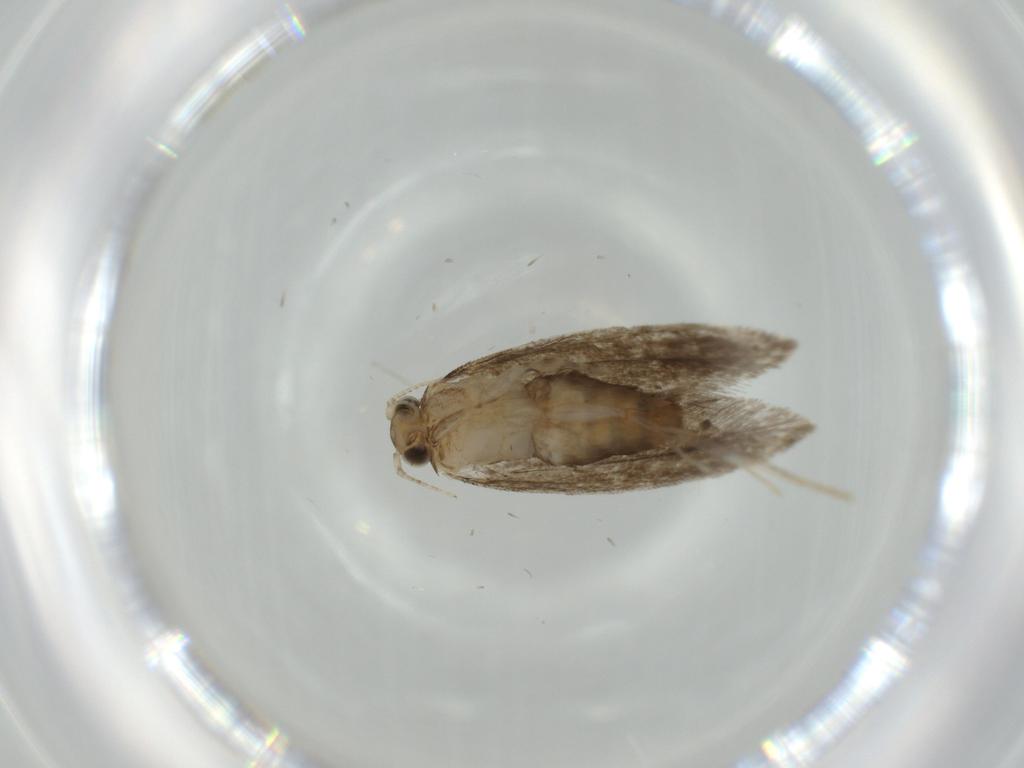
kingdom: Animalia
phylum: Arthropoda
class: Insecta
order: Lepidoptera
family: Tineidae
